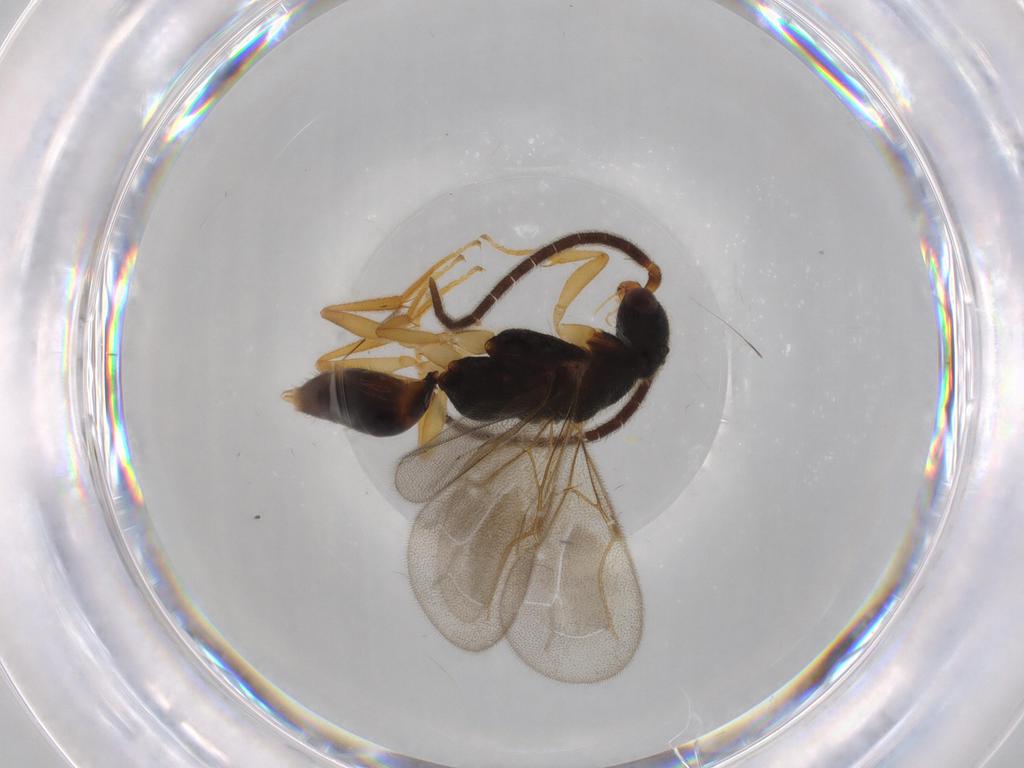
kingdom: Animalia
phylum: Arthropoda
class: Insecta
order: Hymenoptera
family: Bethylidae
